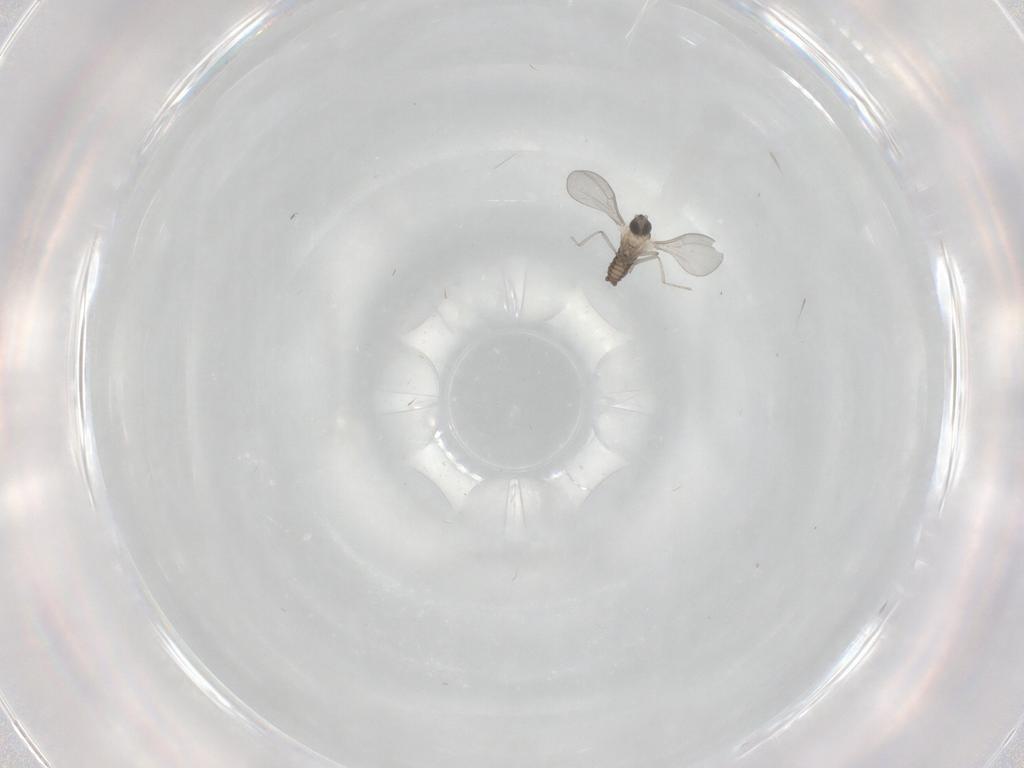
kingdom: Animalia
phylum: Arthropoda
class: Insecta
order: Diptera
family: Cecidomyiidae
